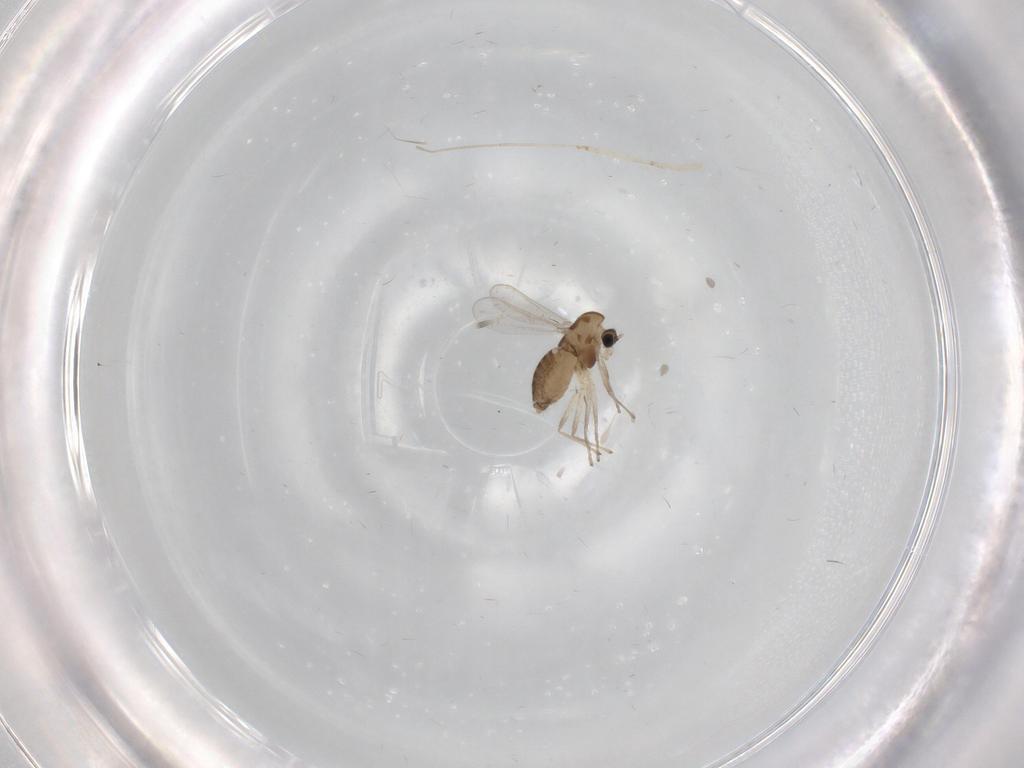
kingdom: Animalia
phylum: Arthropoda
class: Insecta
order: Diptera
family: Chironomidae
